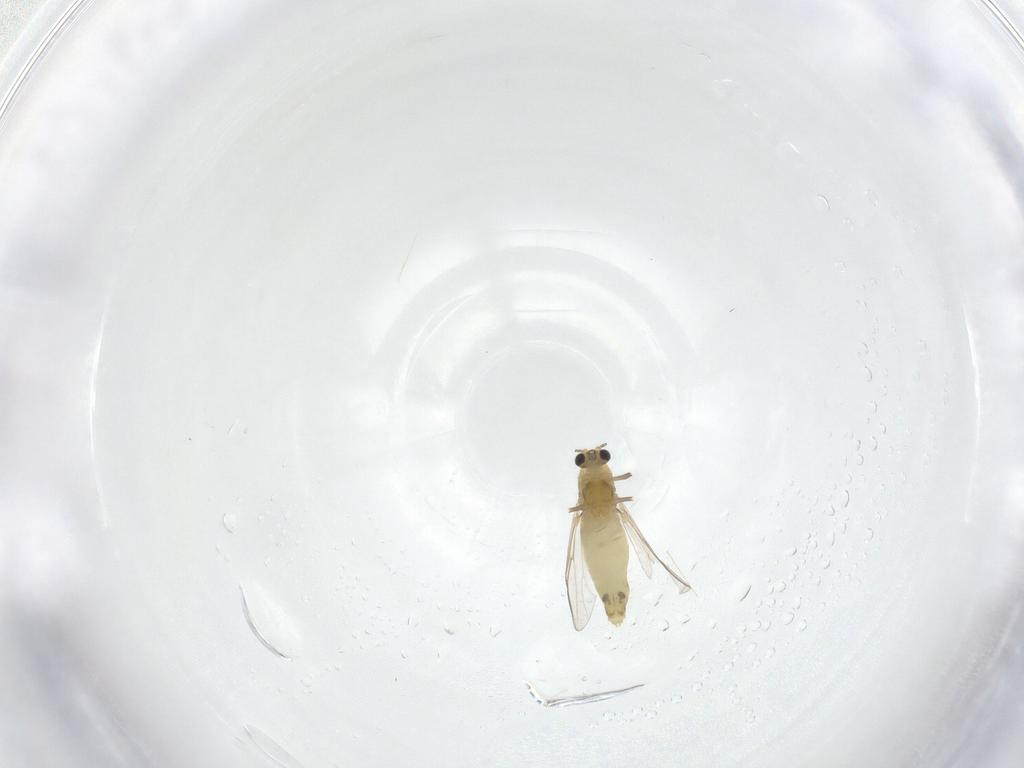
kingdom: Animalia
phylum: Arthropoda
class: Insecta
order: Diptera
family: Chironomidae
